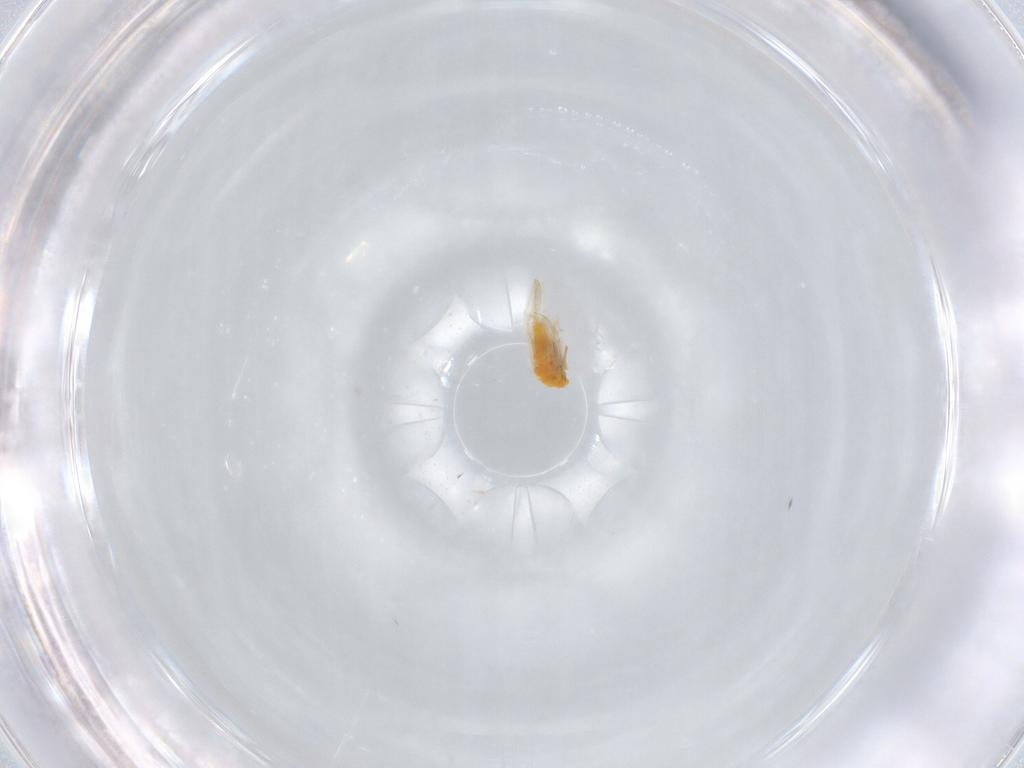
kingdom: Animalia
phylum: Arthropoda
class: Insecta
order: Hemiptera
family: Aleyrodidae
